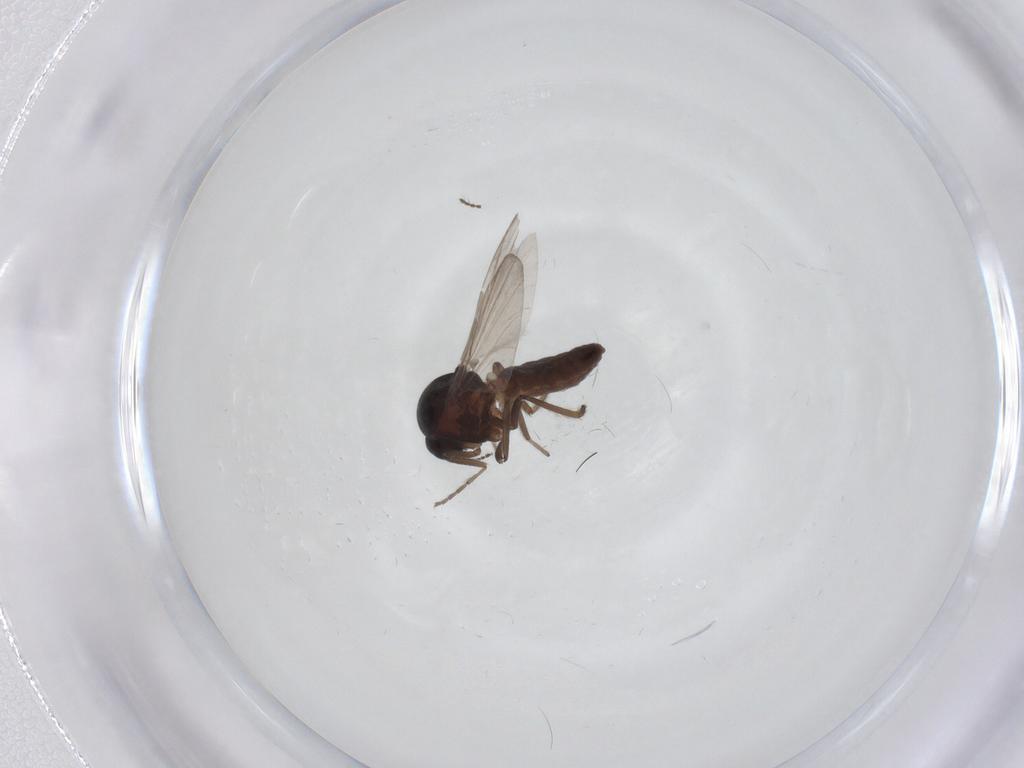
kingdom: Animalia
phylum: Arthropoda
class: Insecta
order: Diptera
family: Ceratopogonidae
